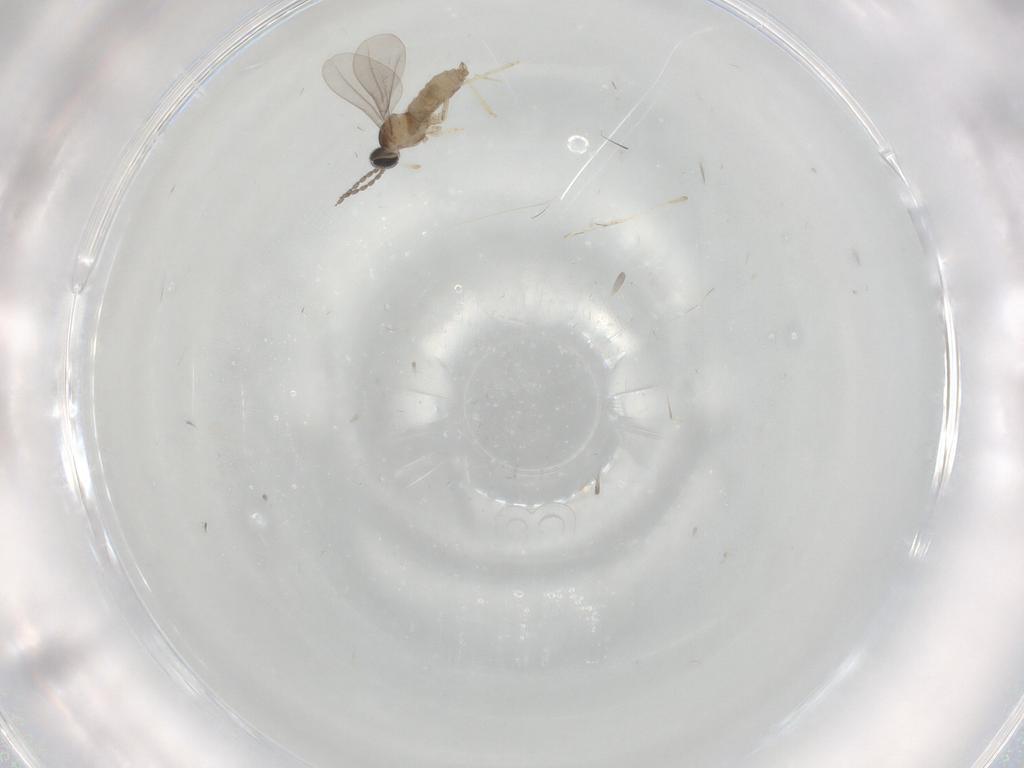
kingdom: Animalia
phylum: Arthropoda
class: Insecta
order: Diptera
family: Cecidomyiidae
